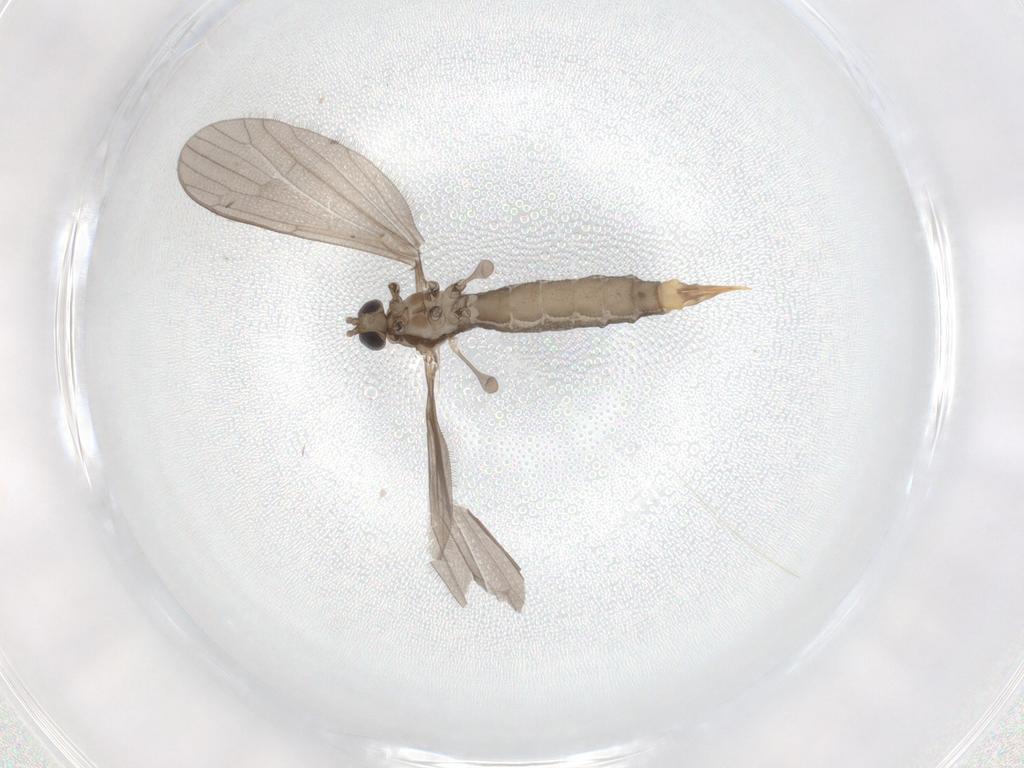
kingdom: Animalia
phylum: Arthropoda
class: Insecta
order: Diptera
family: Limoniidae
